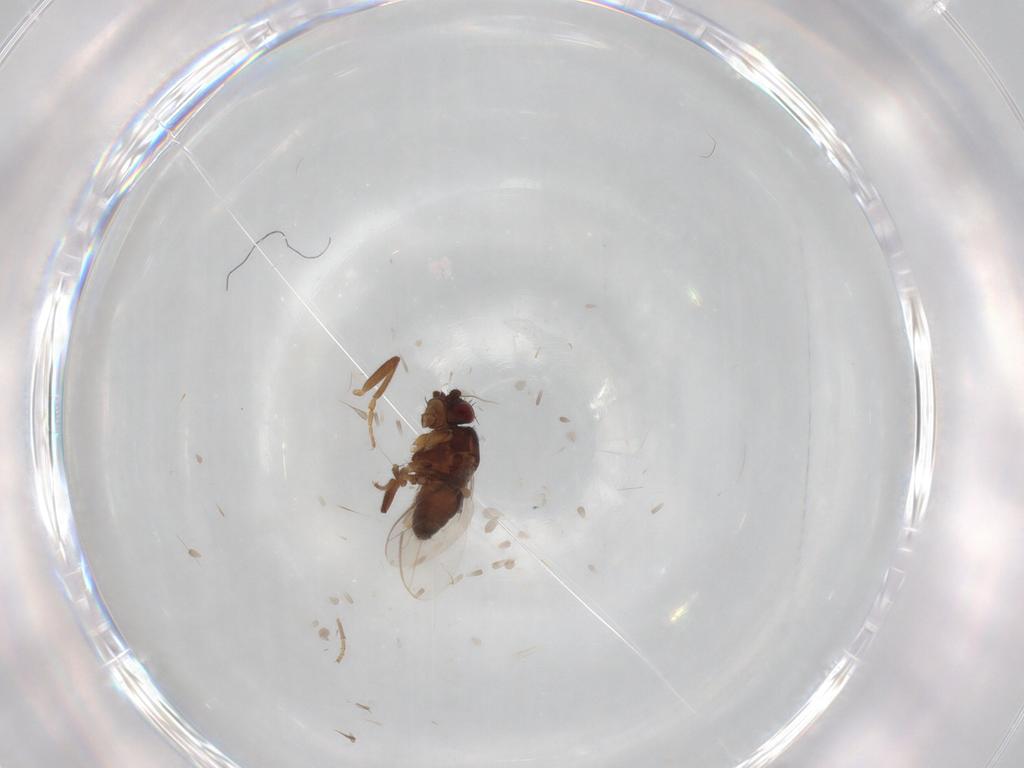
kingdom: Animalia
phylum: Arthropoda
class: Insecta
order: Diptera
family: Sphaeroceridae
